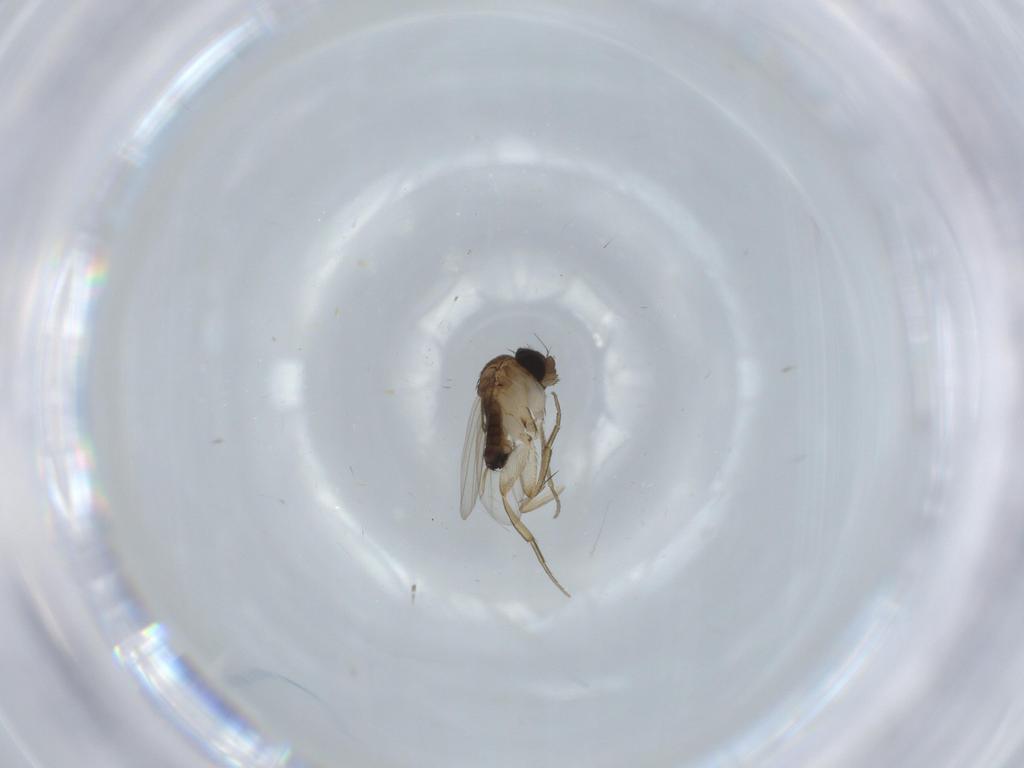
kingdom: Animalia
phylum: Arthropoda
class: Insecta
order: Diptera
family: Phoridae
